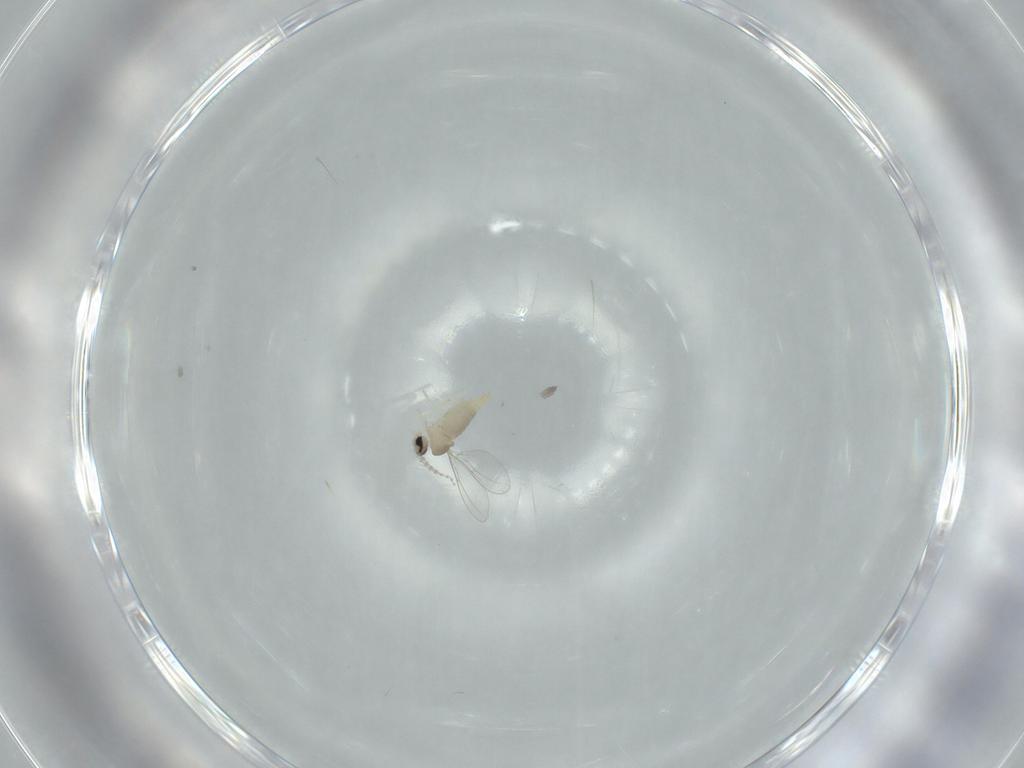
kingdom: Animalia
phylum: Arthropoda
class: Insecta
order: Diptera
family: Cecidomyiidae
